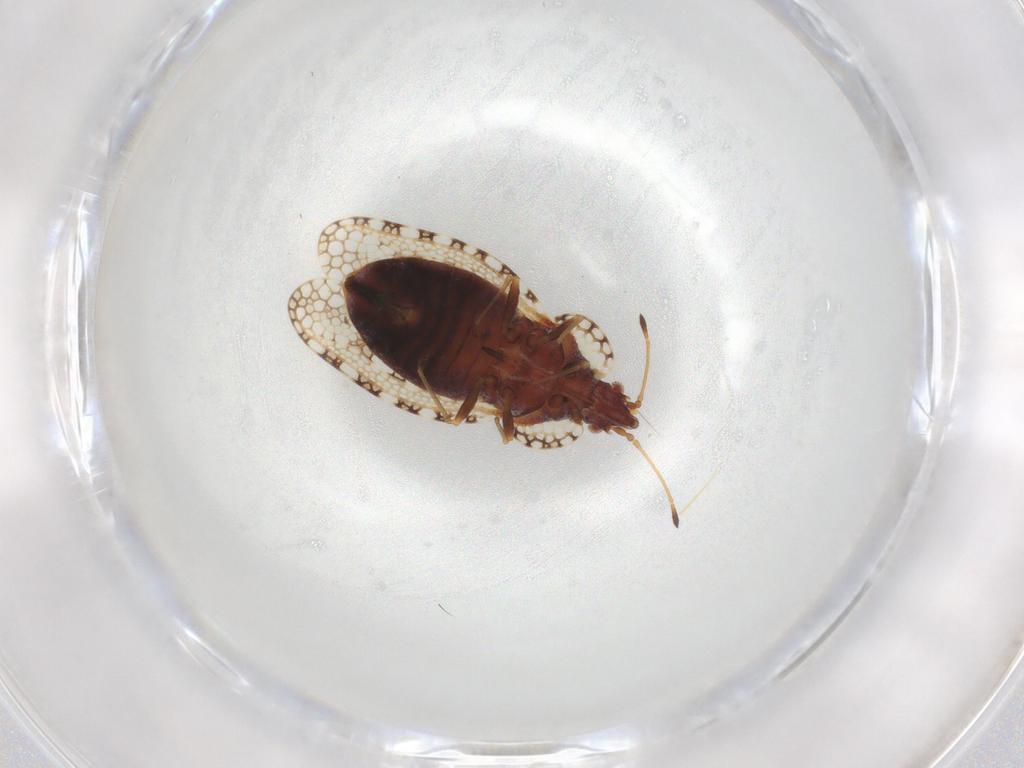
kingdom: Animalia
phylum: Arthropoda
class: Insecta
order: Hemiptera
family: Tingidae
